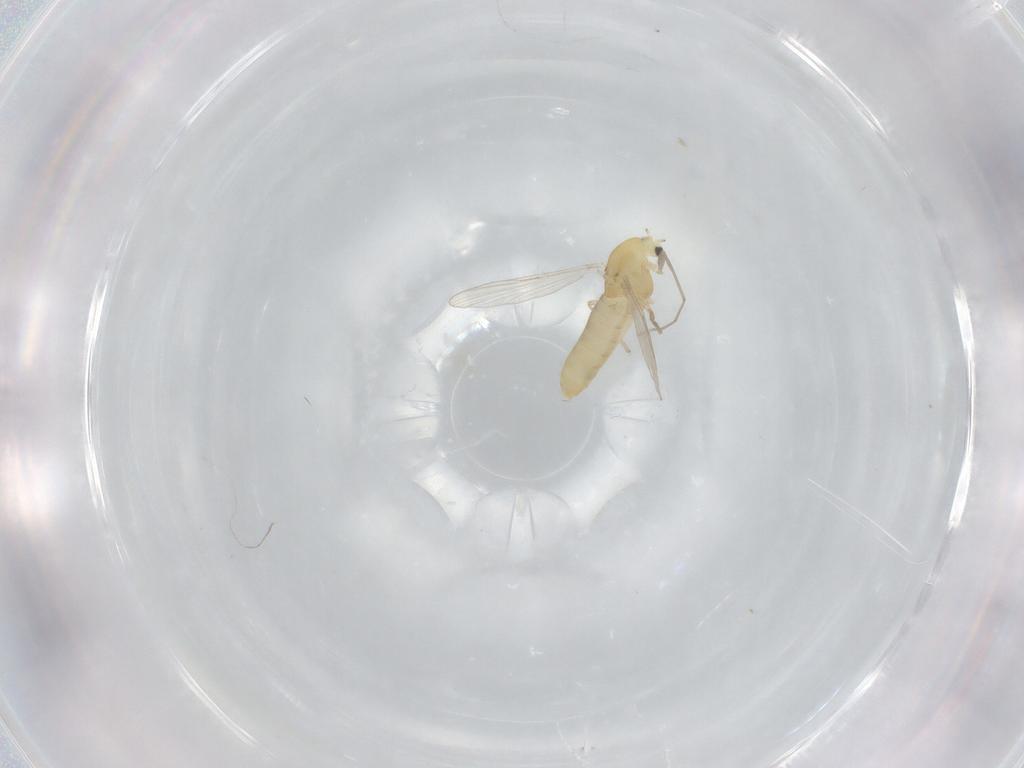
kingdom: Animalia
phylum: Arthropoda
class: Insecta
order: Diptera
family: Chironomidae
